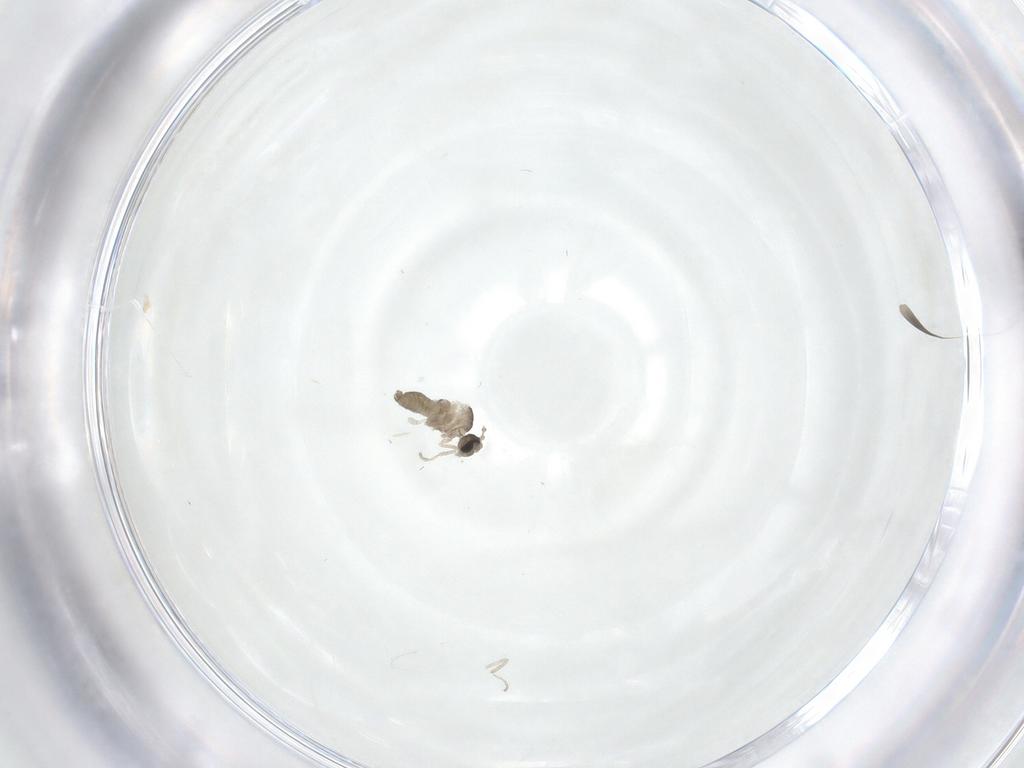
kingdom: Animalia
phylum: Arthropoda
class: Insecta
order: Diptera
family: Cecidomyiidae
